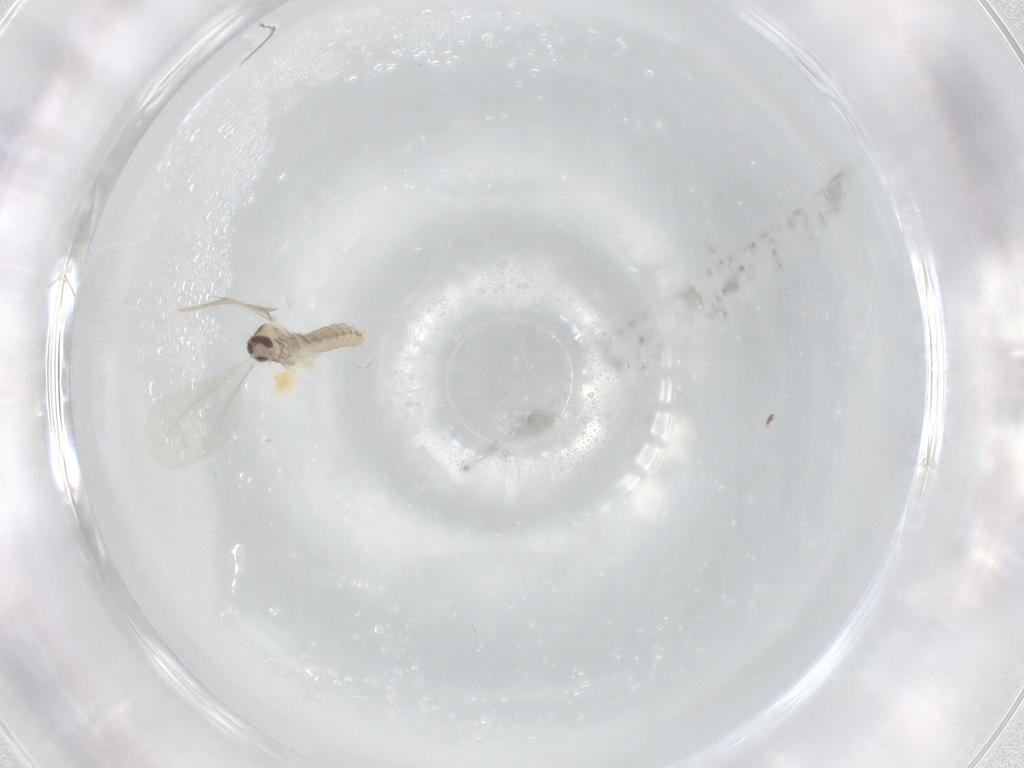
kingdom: Animalia
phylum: Arthropoda
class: Insecta
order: Diptera
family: Cecidomyiidae
